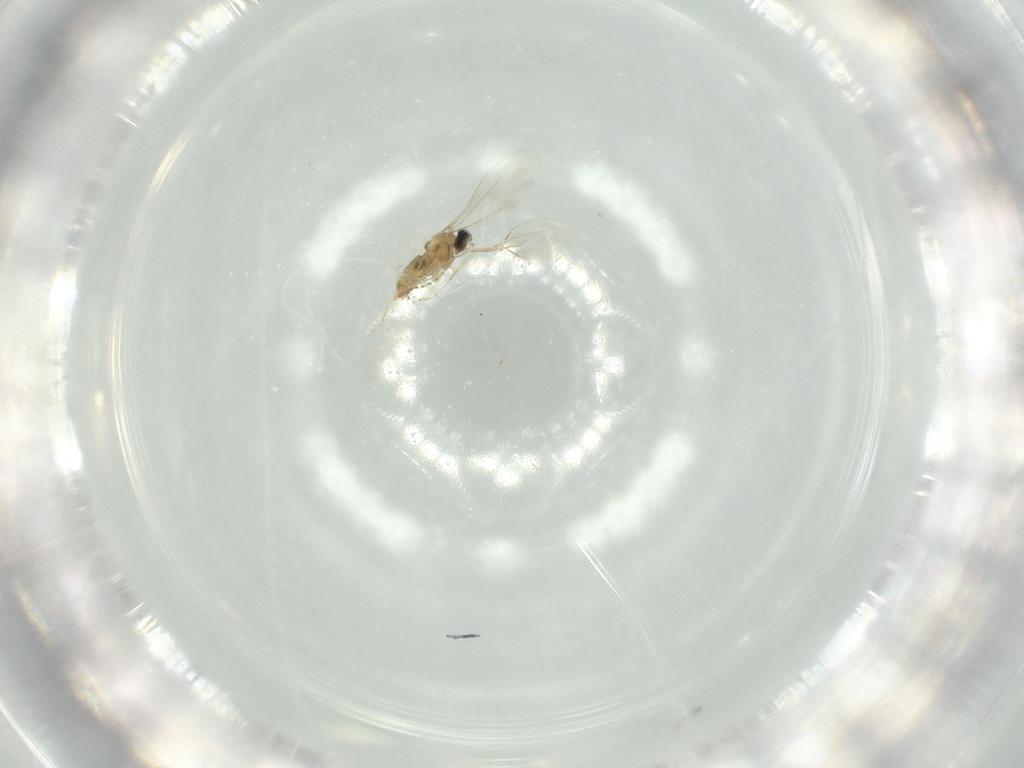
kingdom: Animalia
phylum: Arthropoda
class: Insecta
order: Diptera
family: Cecidomyiidae
